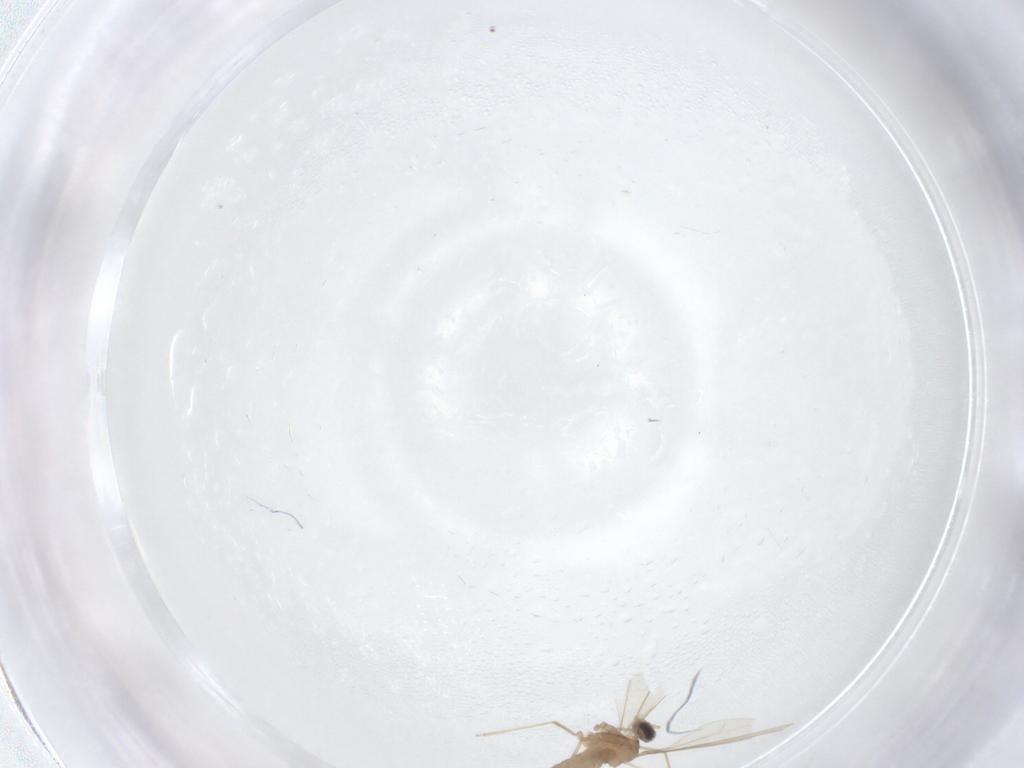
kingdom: Animalia
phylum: Arthropoda
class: Insecta
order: Diptera
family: Cecidomyiidae
